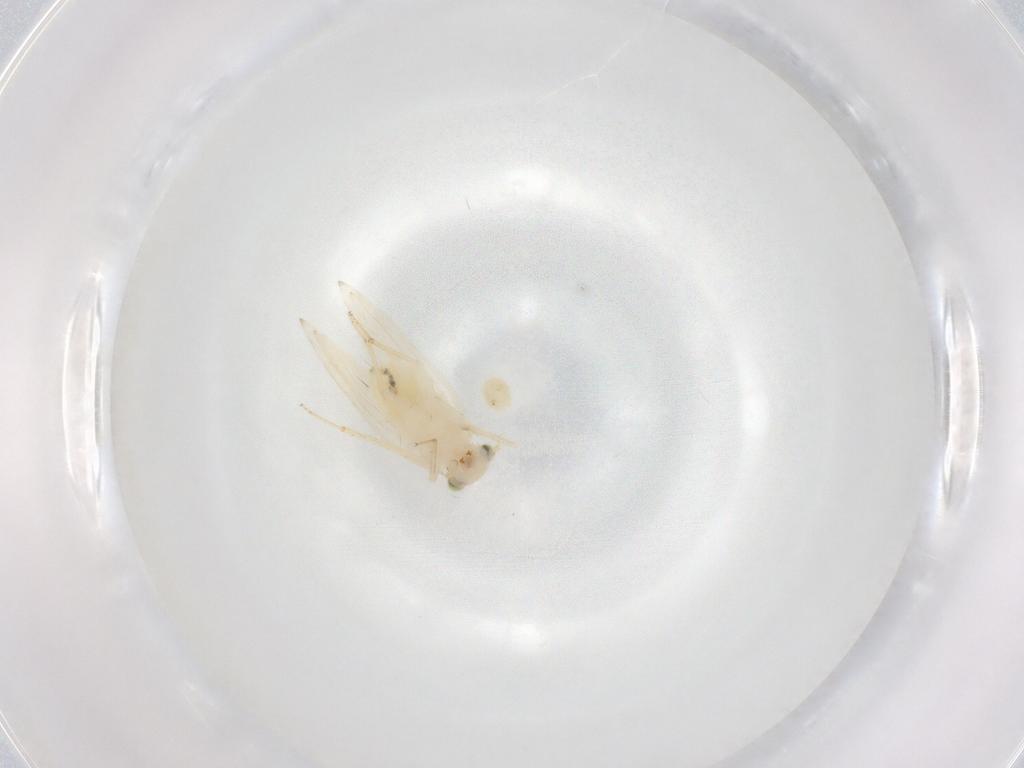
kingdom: Animalia
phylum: Arthropoda
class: Insecta
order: Psocodea
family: Lepidopsocidae
